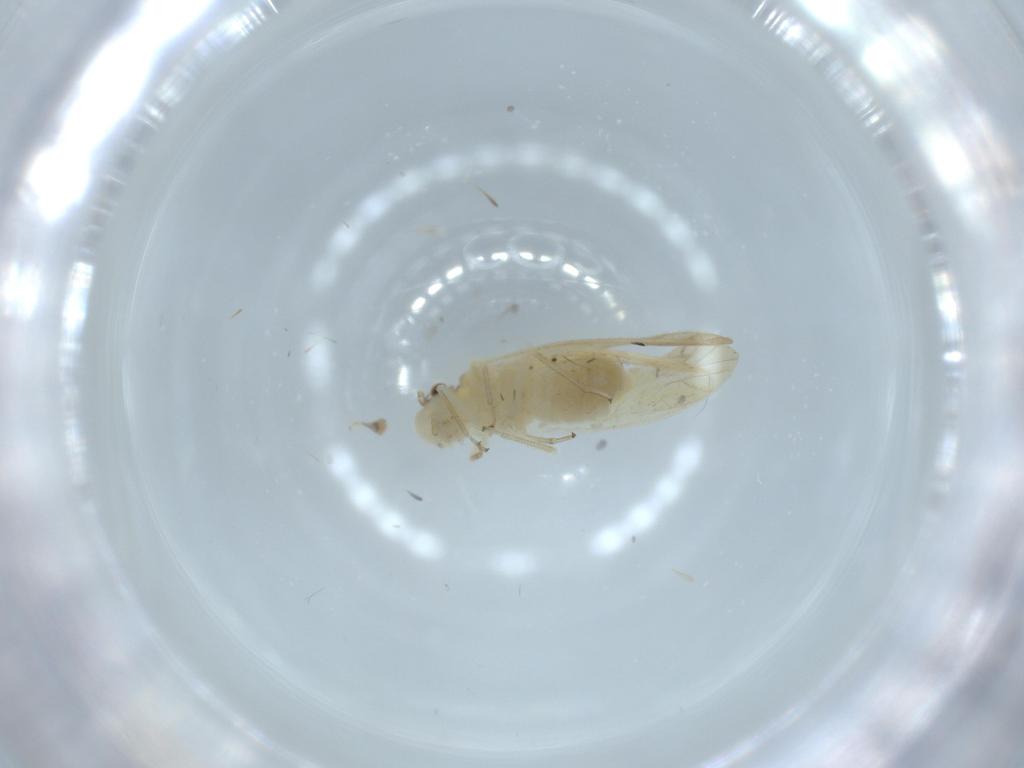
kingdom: Animalia
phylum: Arthropoda
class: Insecta
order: Psocodea
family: Caeciliusidae
